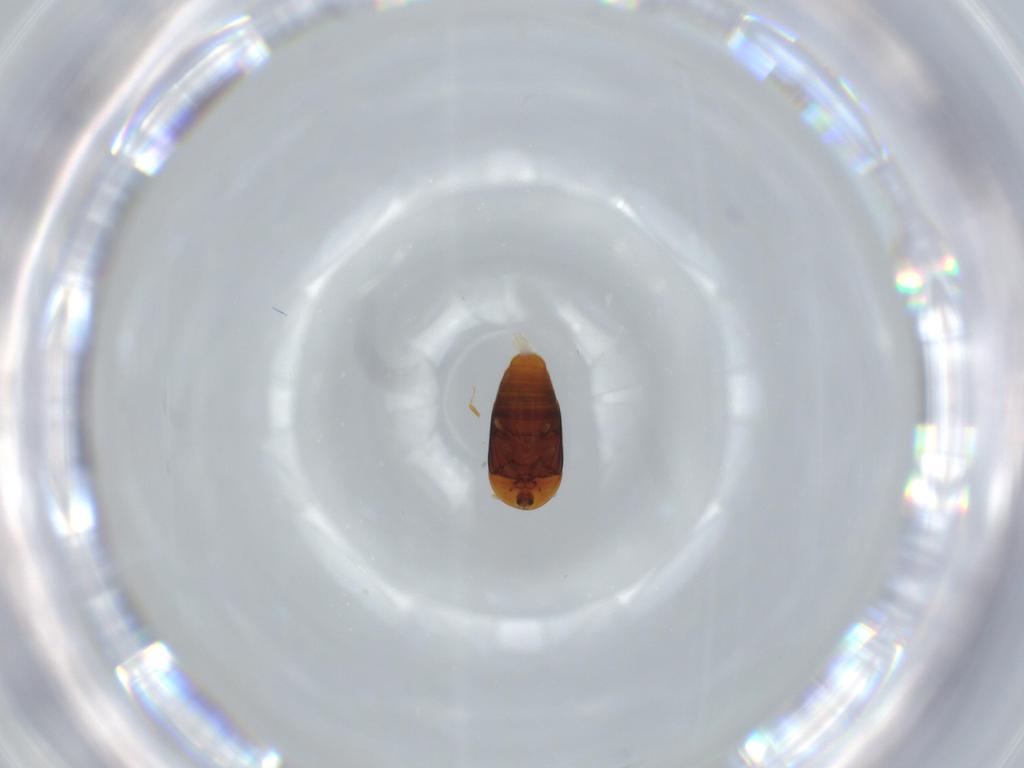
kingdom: Animalia
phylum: Arthropoda
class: Insecta
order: Coleoptera
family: Corylophidae
